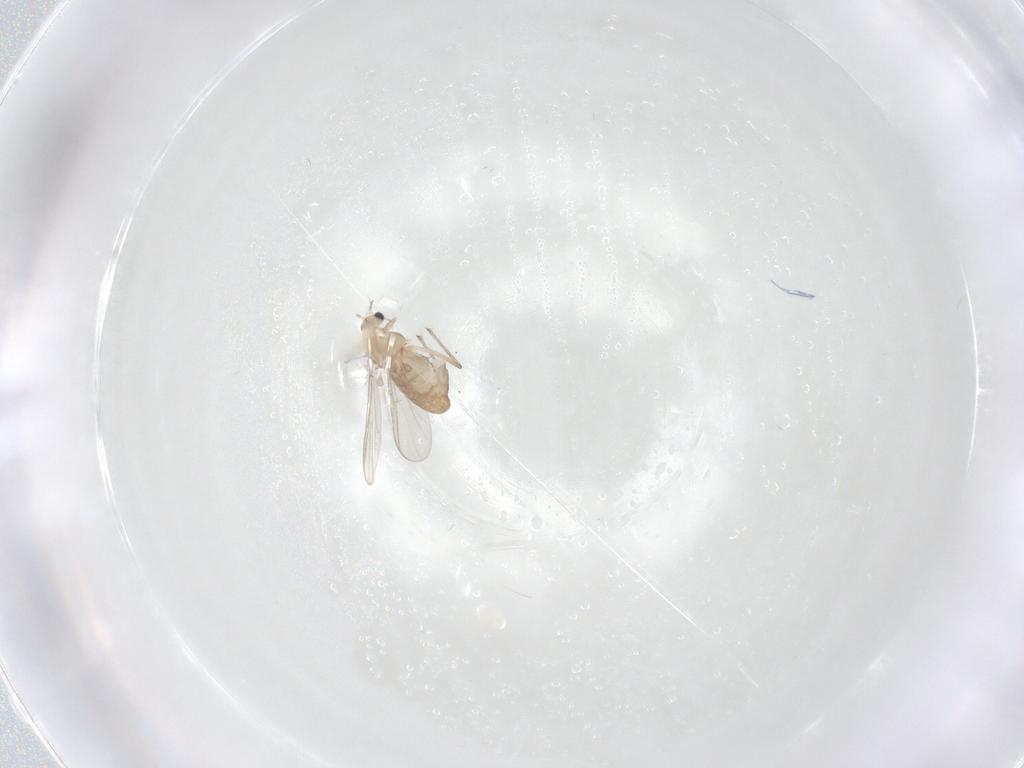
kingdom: Animalia
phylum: Arthropoda
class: Insecta
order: Diptera
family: Chironomidae
